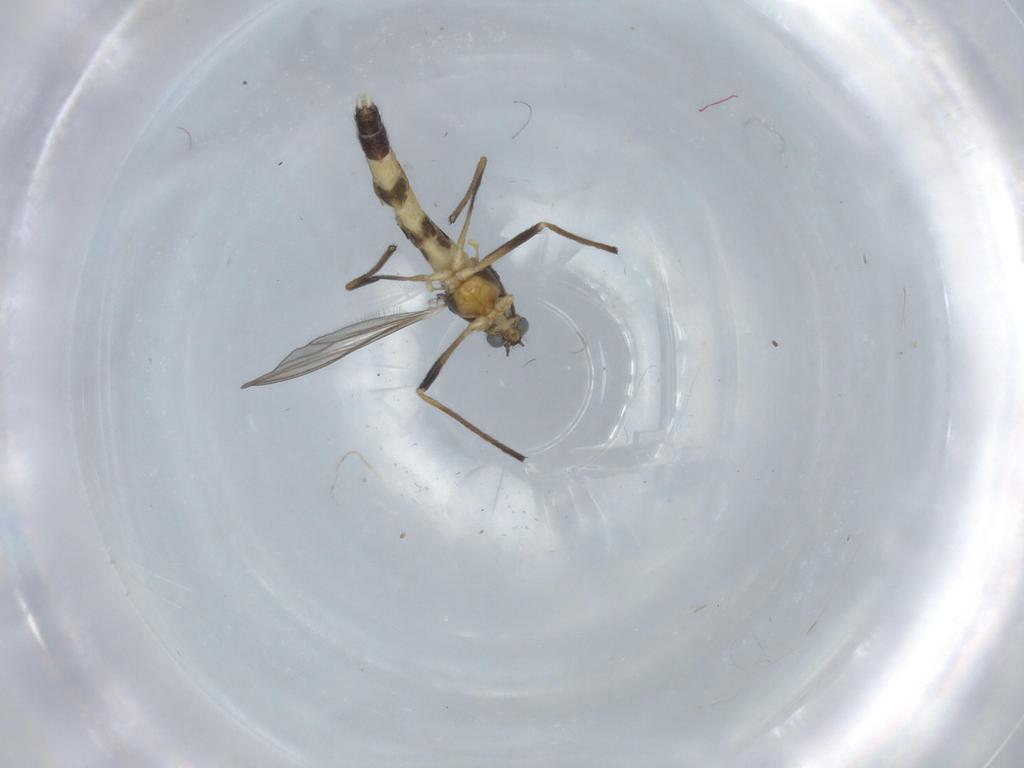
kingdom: Animalia
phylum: Arthropoda
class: Insecta
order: Diptera
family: Chironomidae
